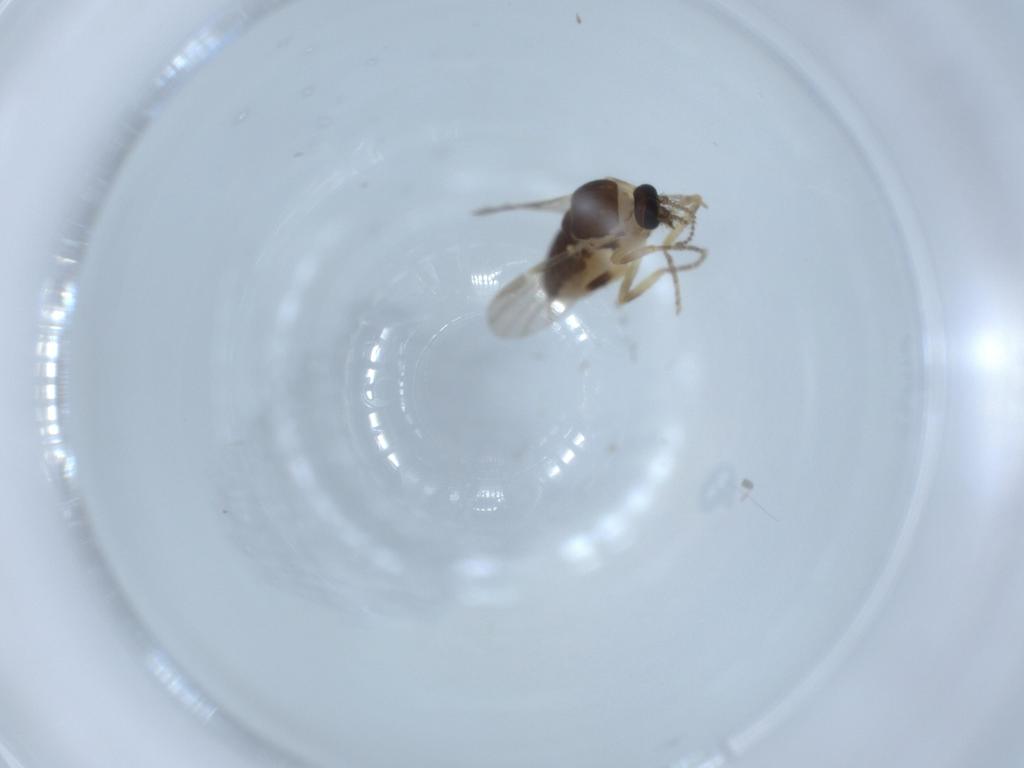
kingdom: Animalia
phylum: Arthropoda
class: Insecta
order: Diptera
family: Ceratopogonidae
